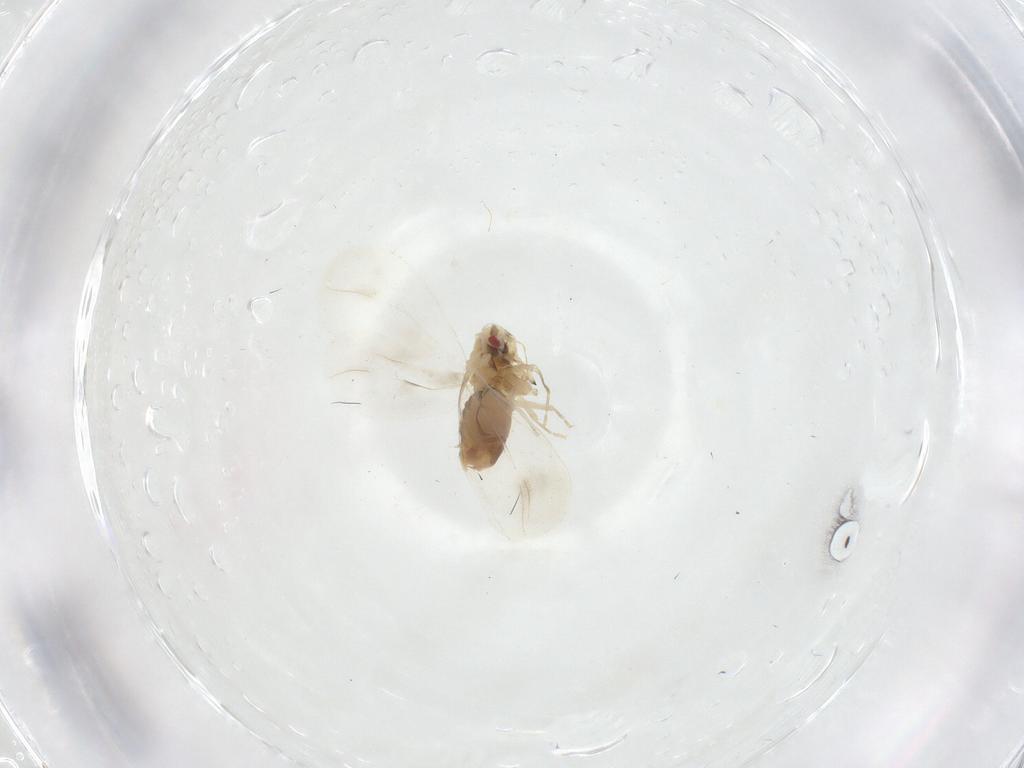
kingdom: Animalia
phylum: Arthropoda
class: Insecta
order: Hemiptera
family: Aleyrodidae
